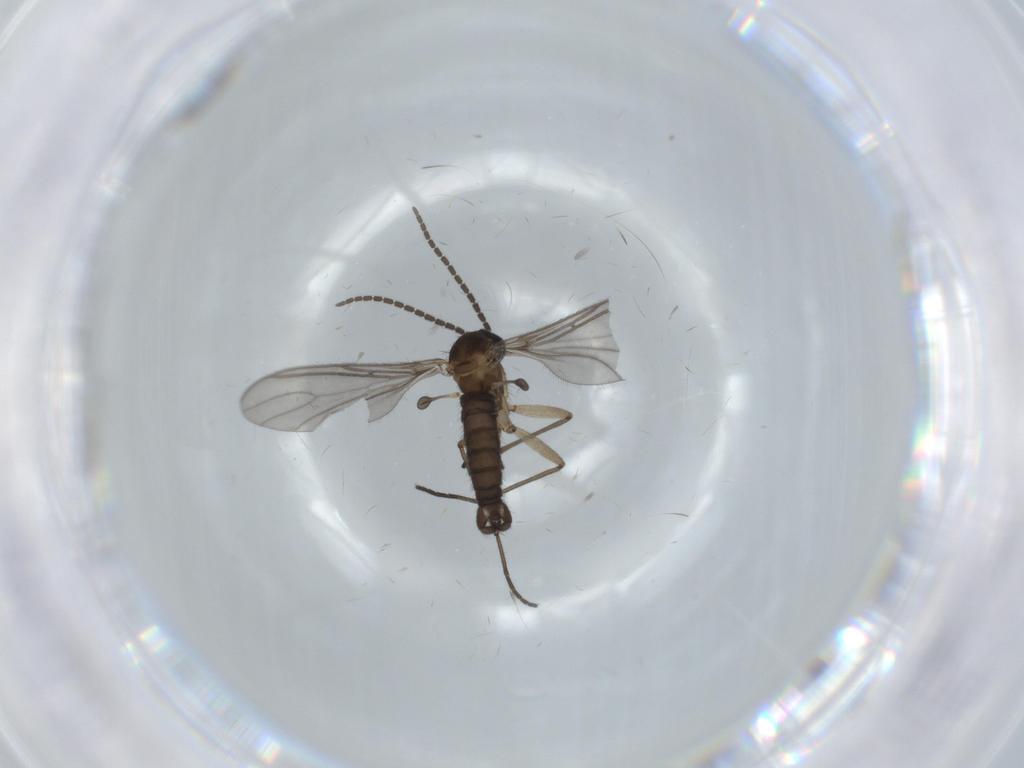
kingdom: Animalia
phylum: Arthropoda
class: Insecta
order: Diptera
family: Sciaridae
